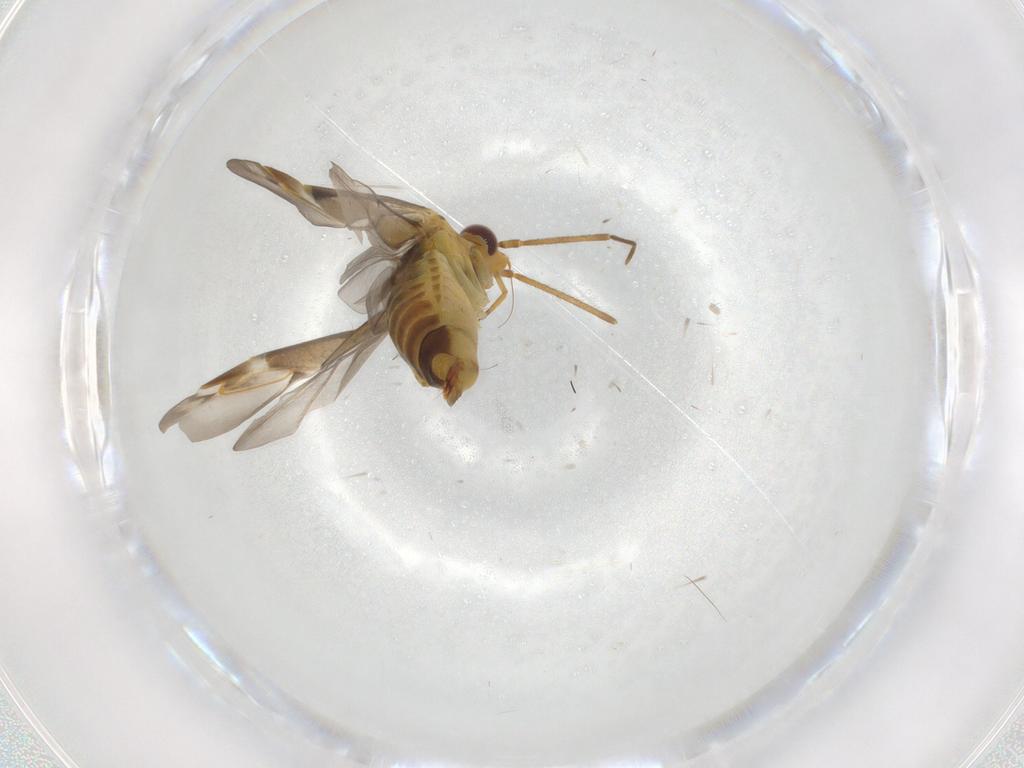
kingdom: Animalia
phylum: Arthropoda
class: Insecta
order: Hemiptera
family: Miridae
